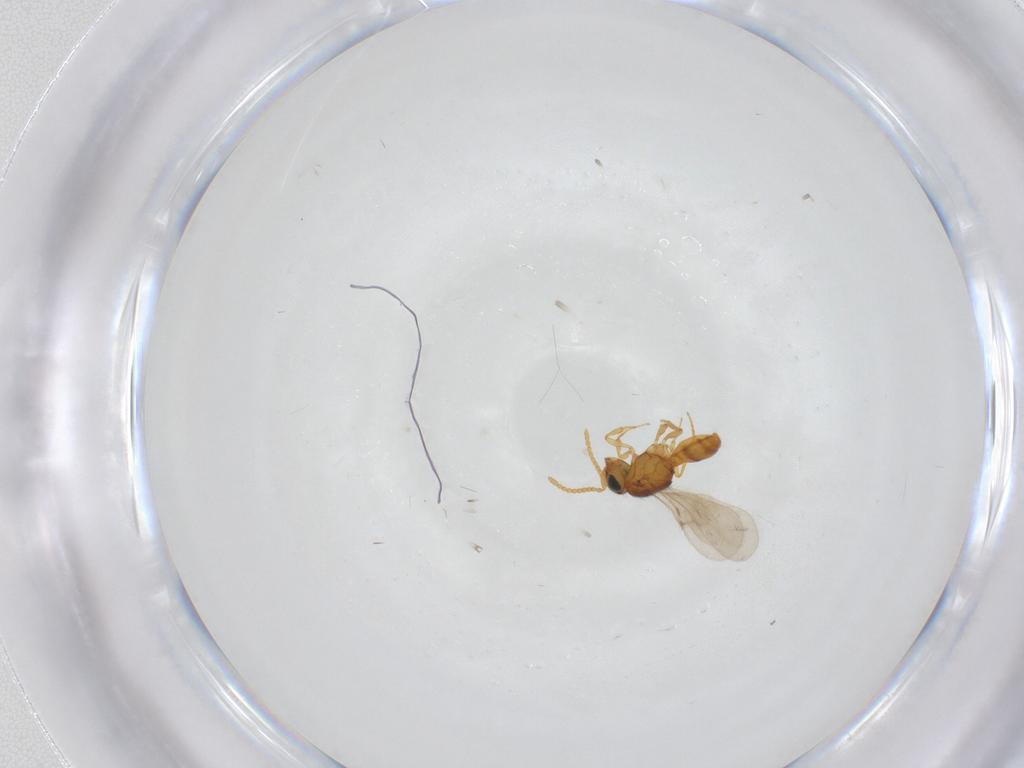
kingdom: Animalia
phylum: Arthropoda
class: Insecta
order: Hymenoptera
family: Scelionidae
